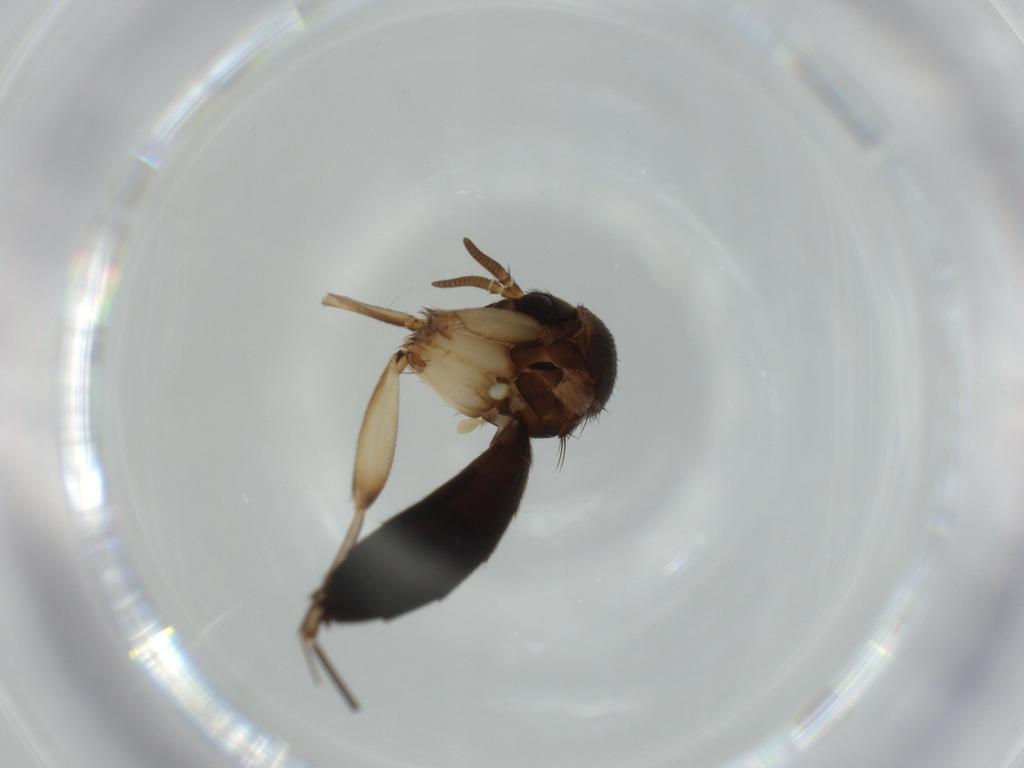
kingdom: Animalia
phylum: Arthropoda
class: Insecta
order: Diptera
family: Mycetophilidae
